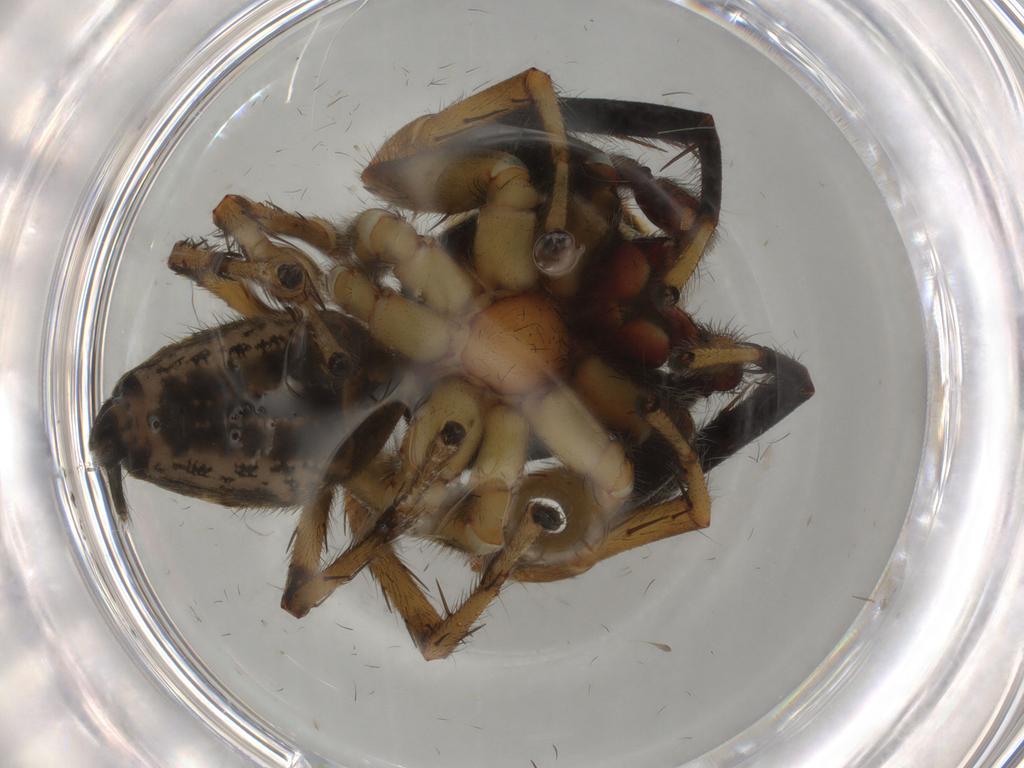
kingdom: Animalia
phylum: Arthropoda
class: Arachnida
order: Araneae
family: Salticidae
